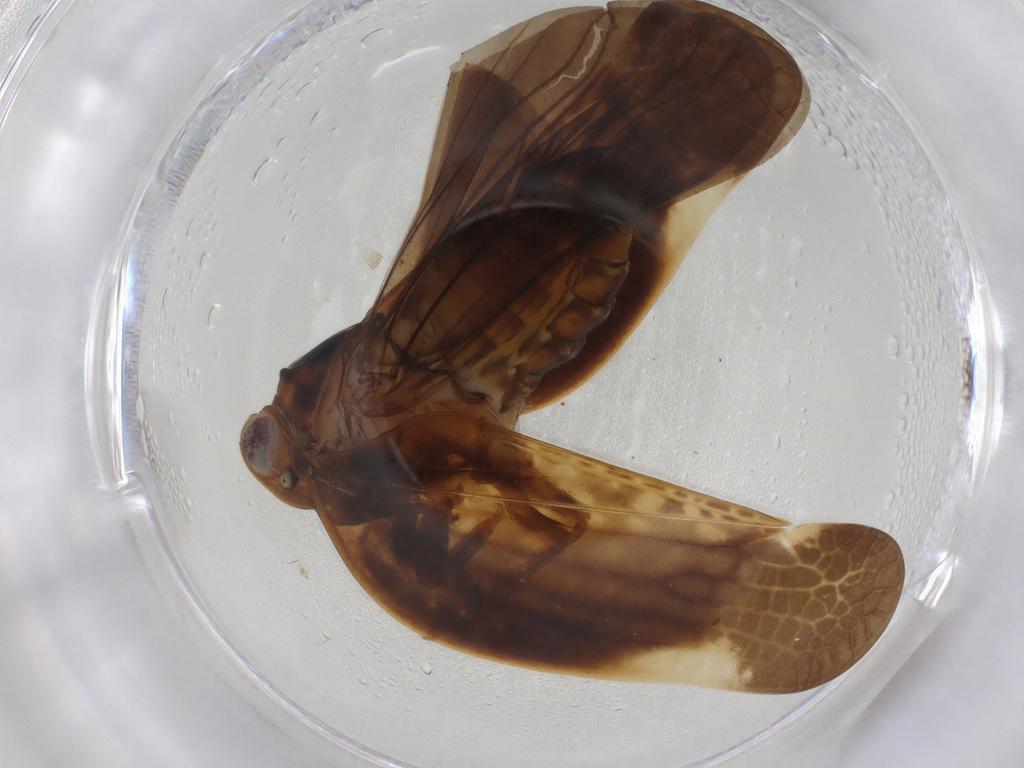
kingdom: Animalia
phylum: Arthropoda
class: Insecta
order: Hemiptera
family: Nogodinidae
